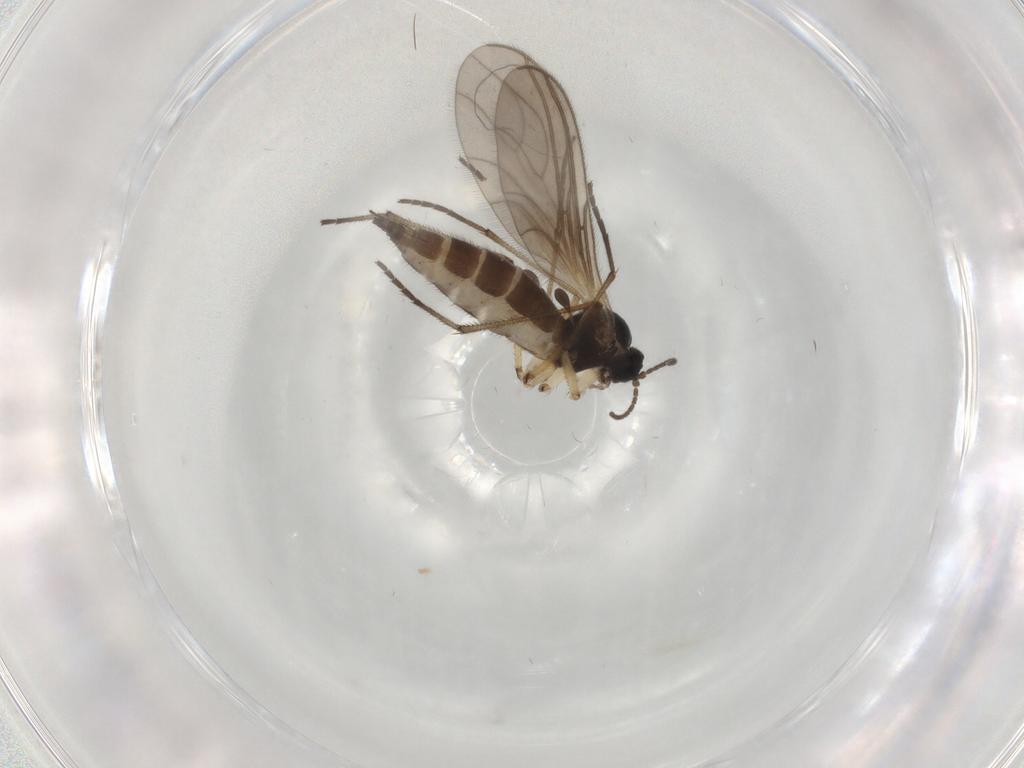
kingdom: Animalia
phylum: Arthropoda
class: Insecta
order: Diptera
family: Sciaridae
